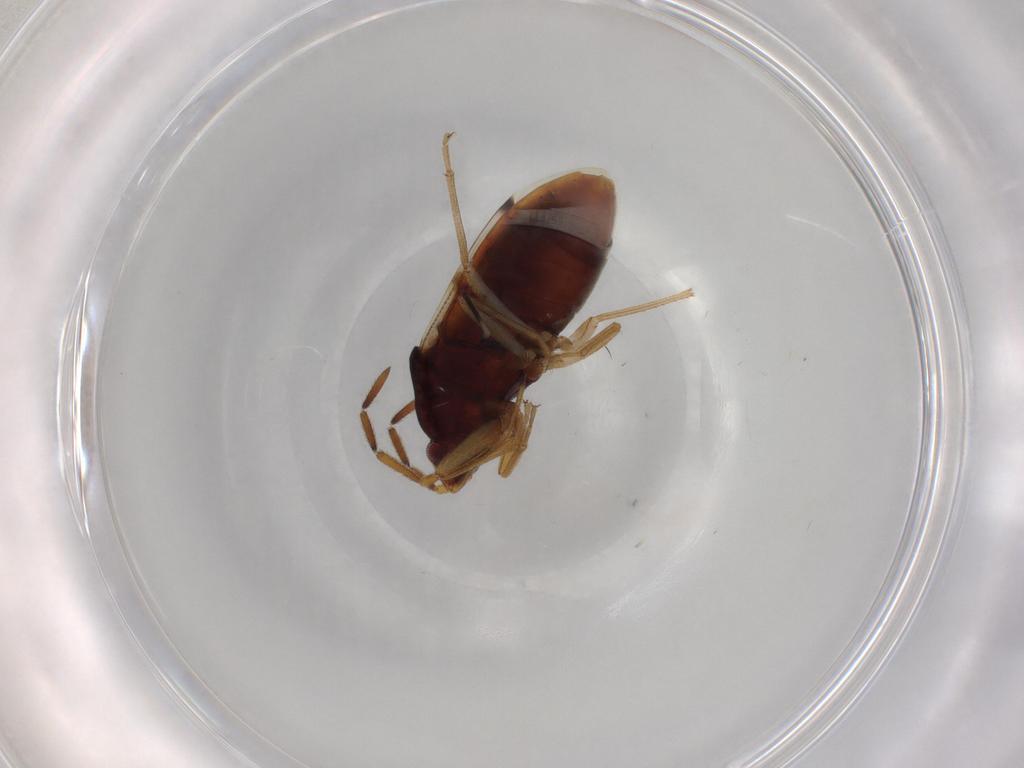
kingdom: Animalia
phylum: Arthropoda
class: Insecta
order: Hemiptera
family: Rhyparochromidae
